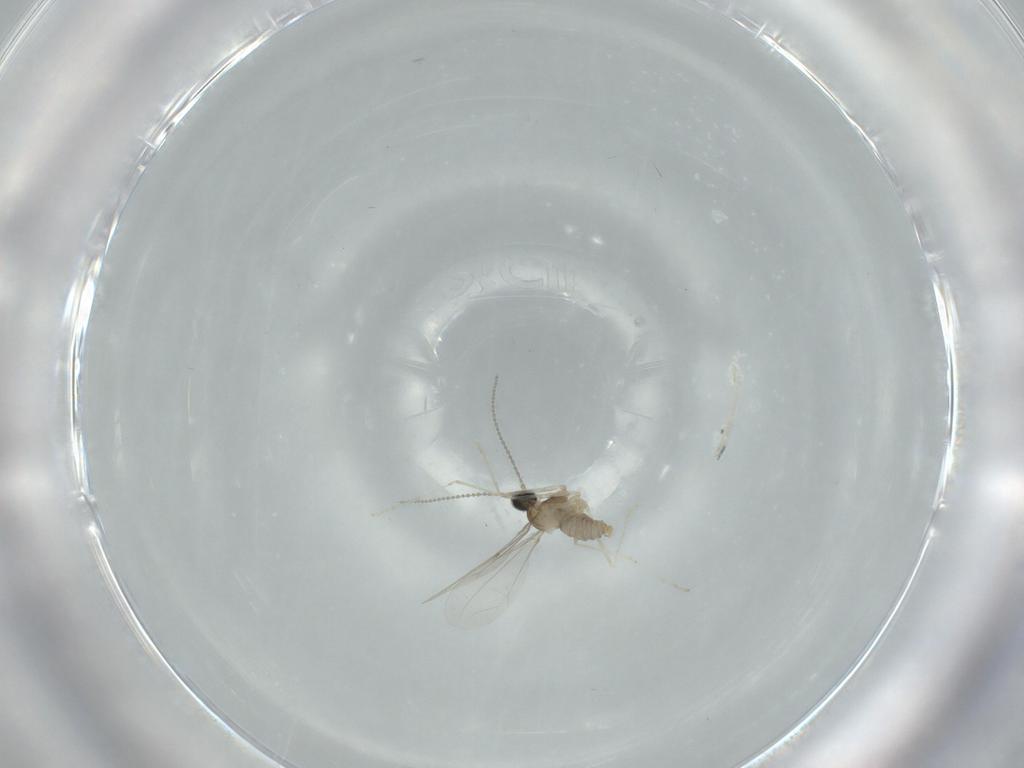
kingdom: Animalia
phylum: Arthropoda
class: Insecta
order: Diptera
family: Cecidomyiidae
